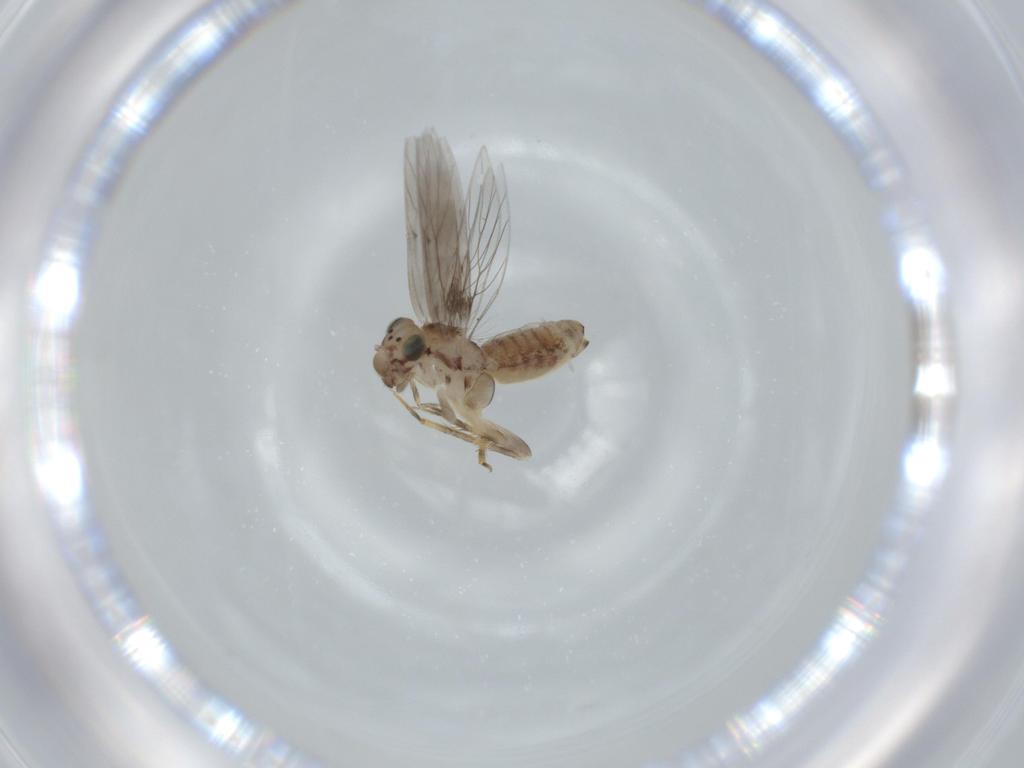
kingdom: Animalia
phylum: Arthropoda
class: Insecta
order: Psocodea
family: Lepidopsocidae
